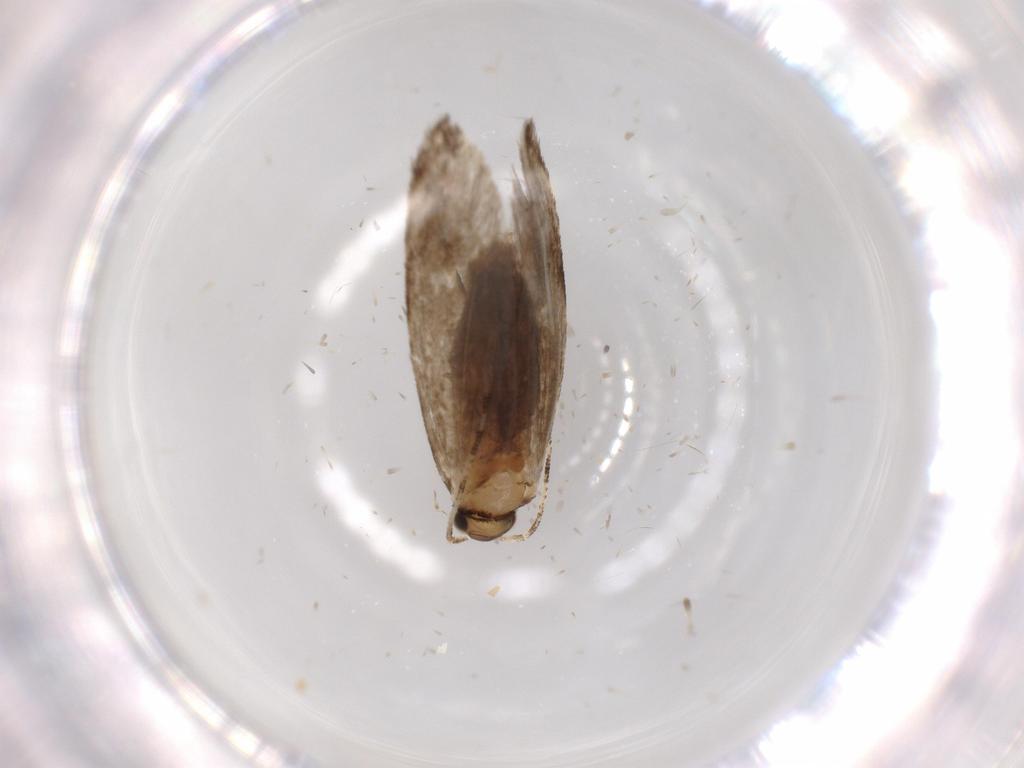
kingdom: Animalia
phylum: Arthropoda
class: Insecta
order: Lepidoptera
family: Tineidae
